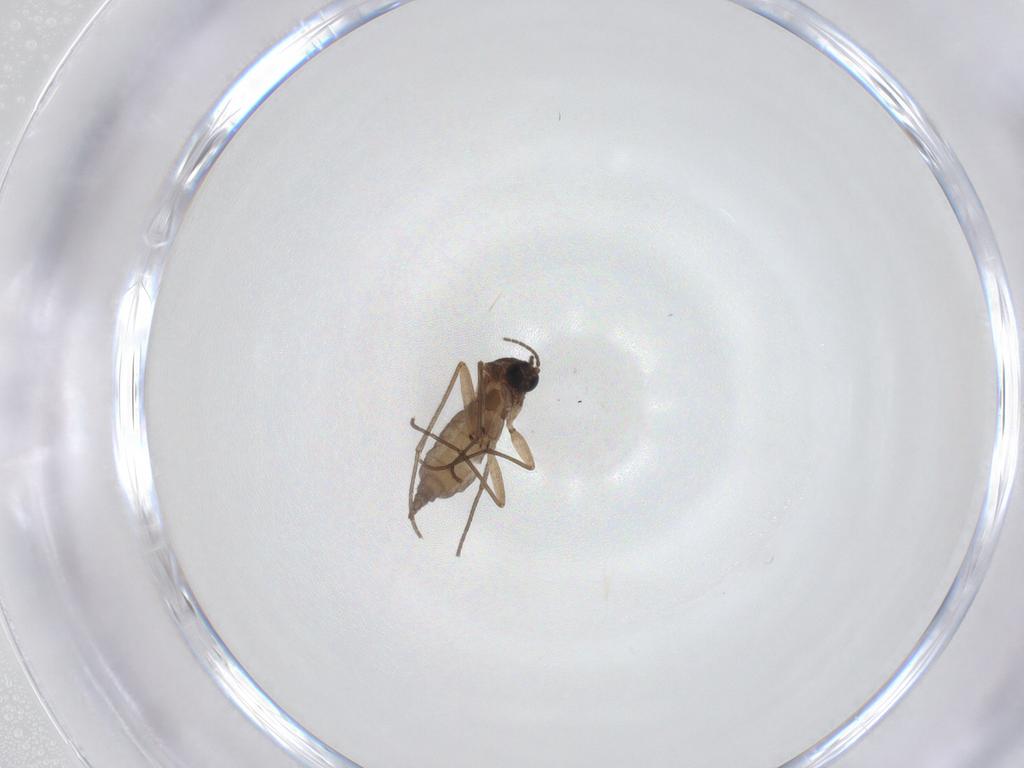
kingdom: Animalia
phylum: Arthropoda
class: Insecta
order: Diptera
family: Sciaridae
